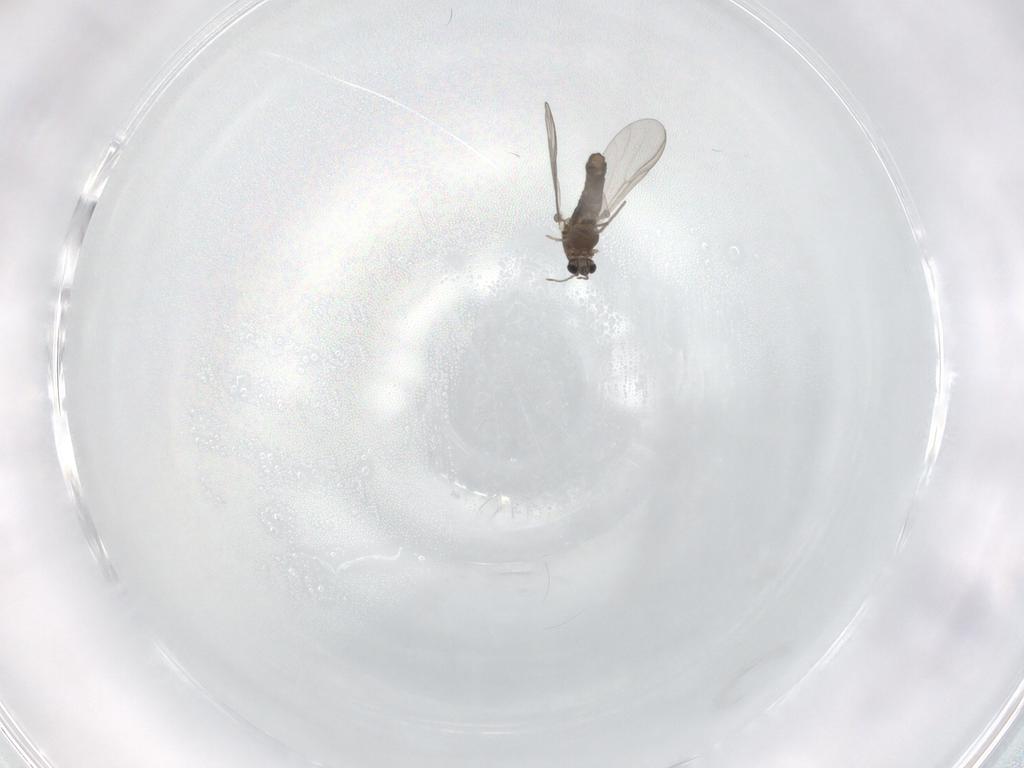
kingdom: Animalia
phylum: Arthropoda
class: Insecta
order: Diptera
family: Chironomidae
